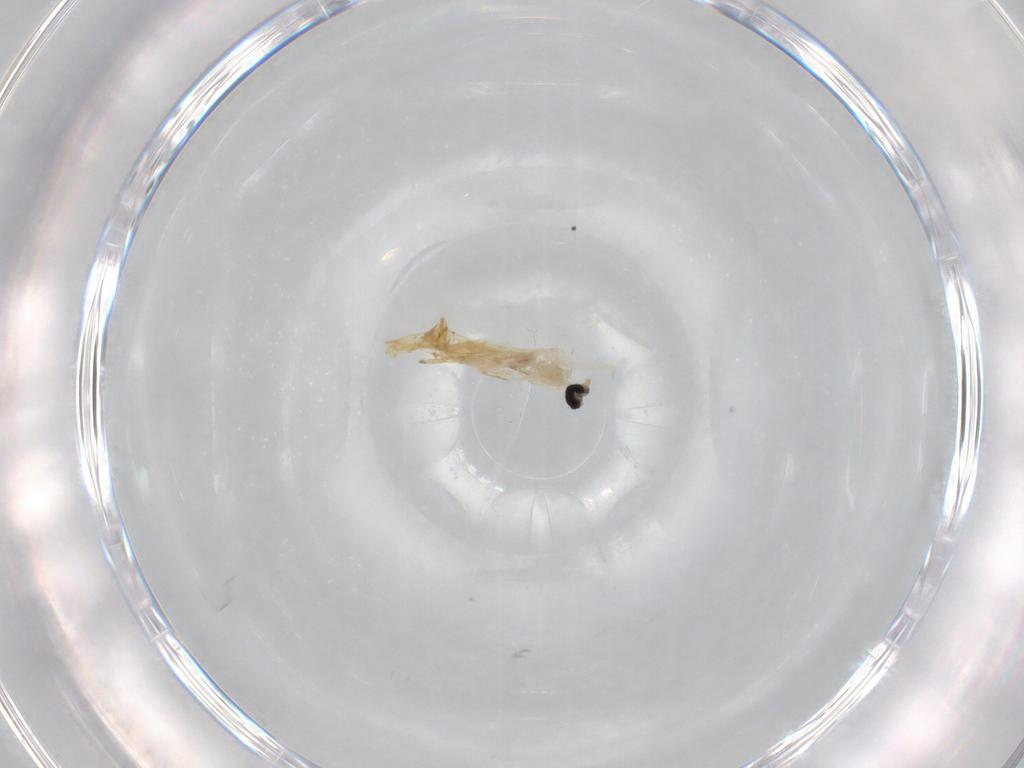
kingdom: Animalia
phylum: Arthropoda
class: Insecta
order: Diptera
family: Cecidomyiidae
